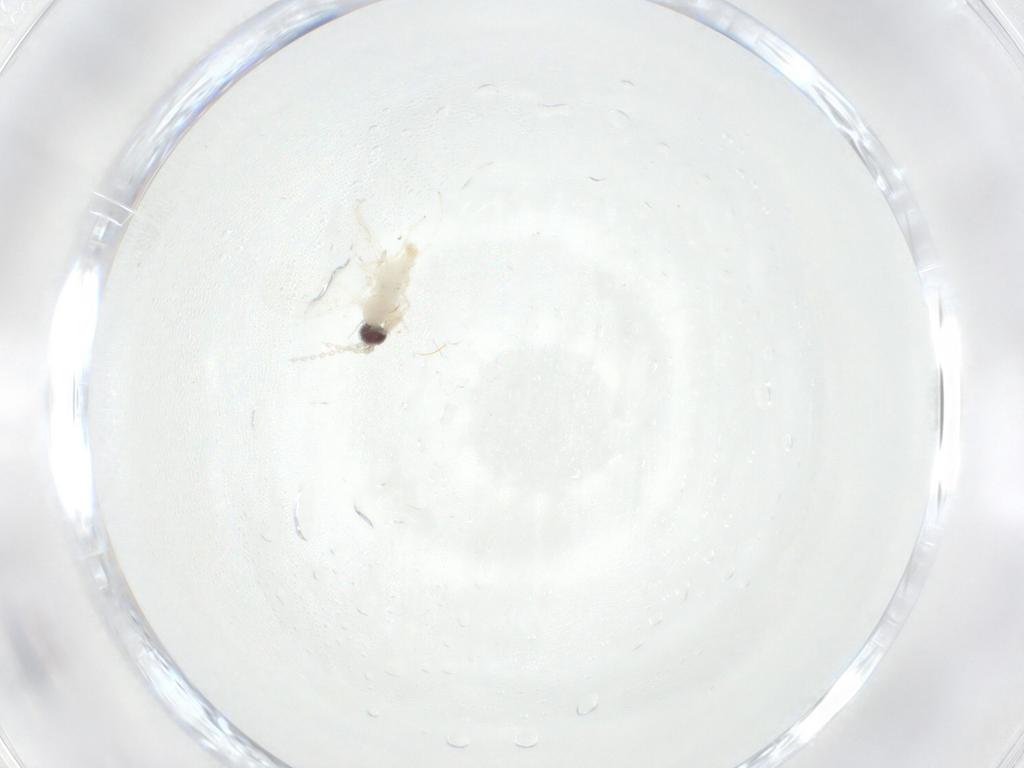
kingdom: Animalia
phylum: Arthropoda
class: Insecta
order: Diptera
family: Cecidomyiidae
